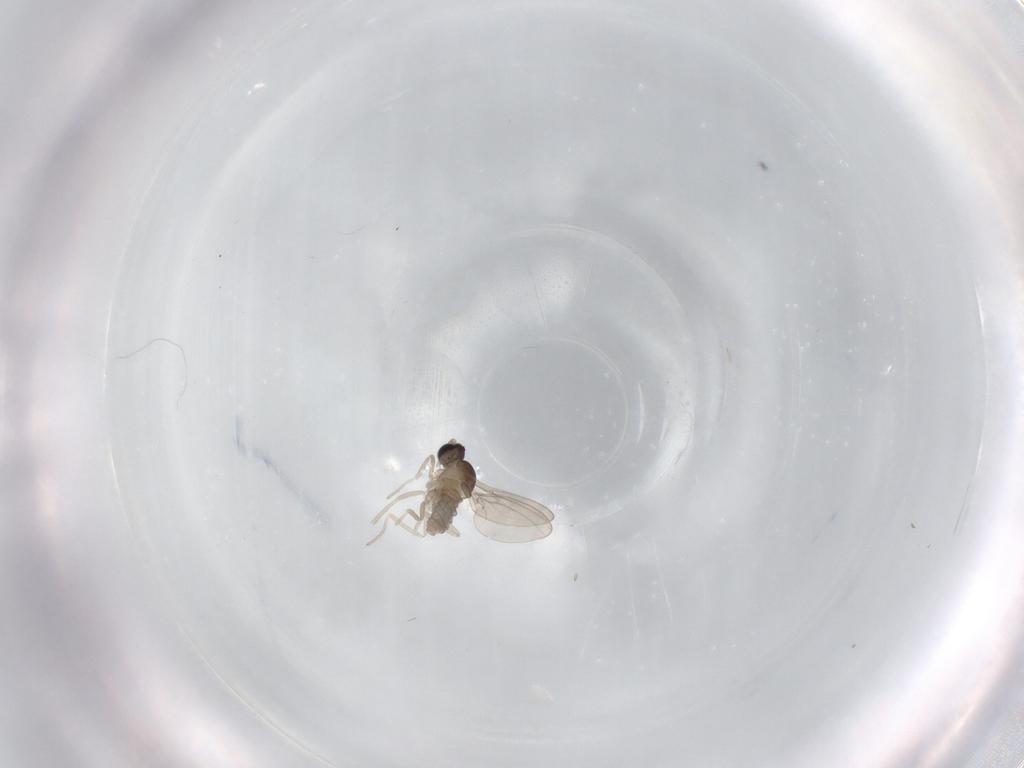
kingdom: Animalia
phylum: Arthropoda
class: Insecta
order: Diptera
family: Cecidomyiidae
